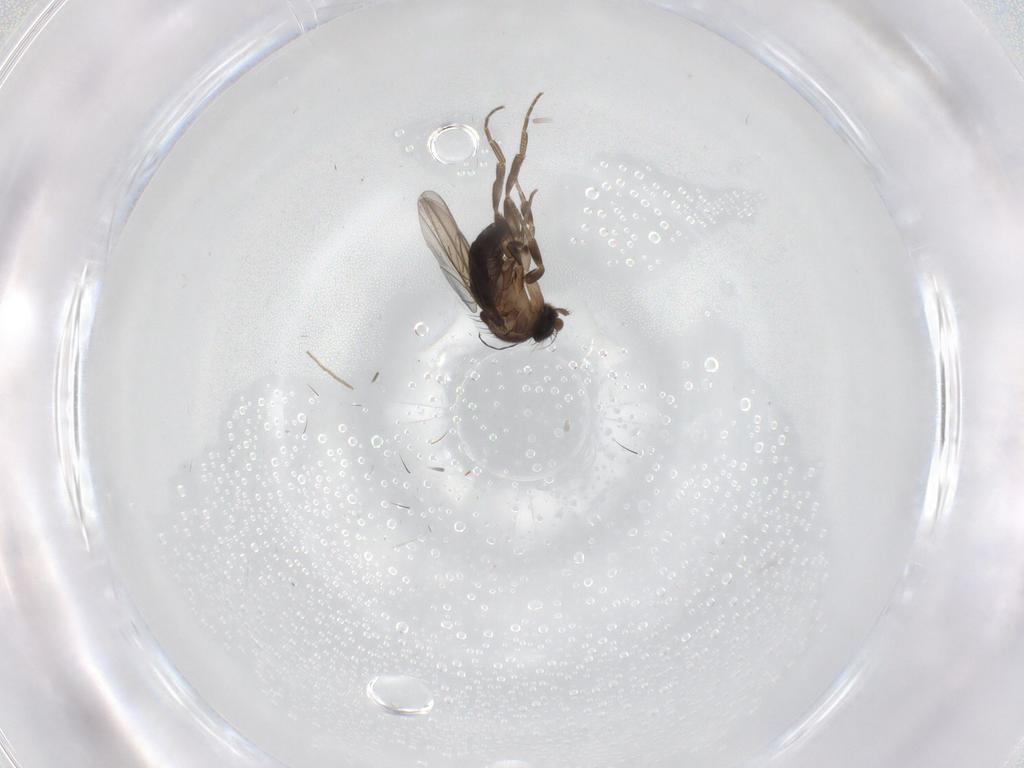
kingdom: Animalia
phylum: Arthropoda
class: Insecta
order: Diptera
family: Phoridae
